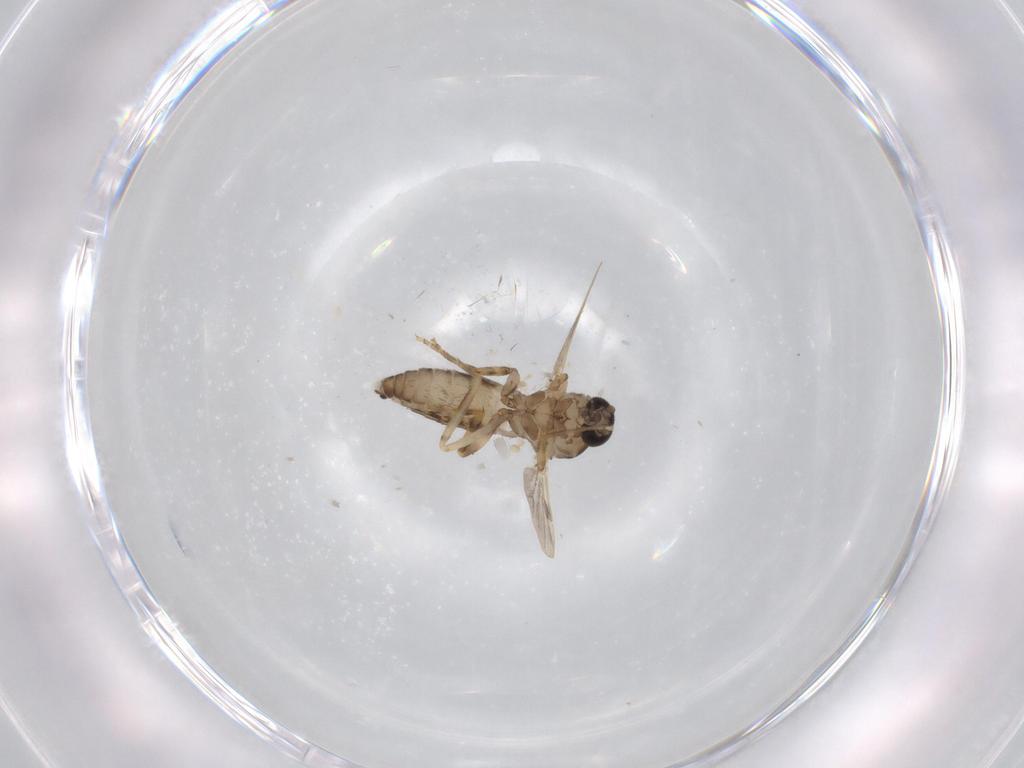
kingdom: Animalia
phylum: Arthropoda
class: Insecta
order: Diptera
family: Ceratopogonidae
